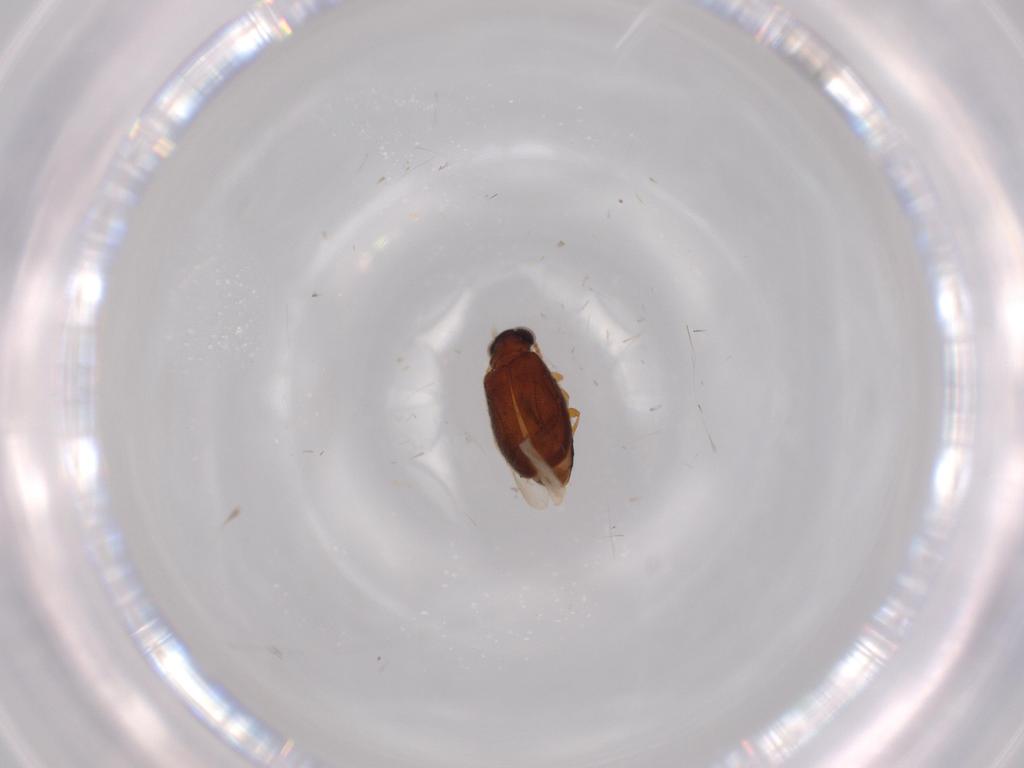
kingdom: Animalia
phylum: Arthropoda
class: Insecta
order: Coleoptera
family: Aderidae
